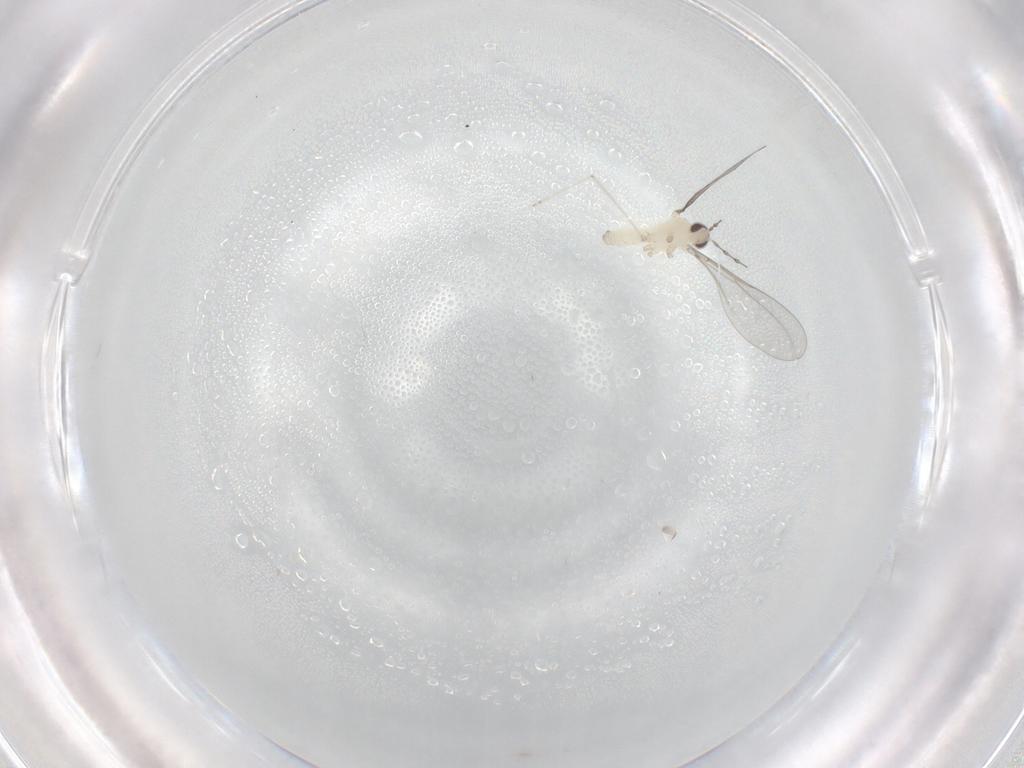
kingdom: Animalia
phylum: Arthropoda
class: Insecta
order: Diptera
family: Cecidomyiidae
